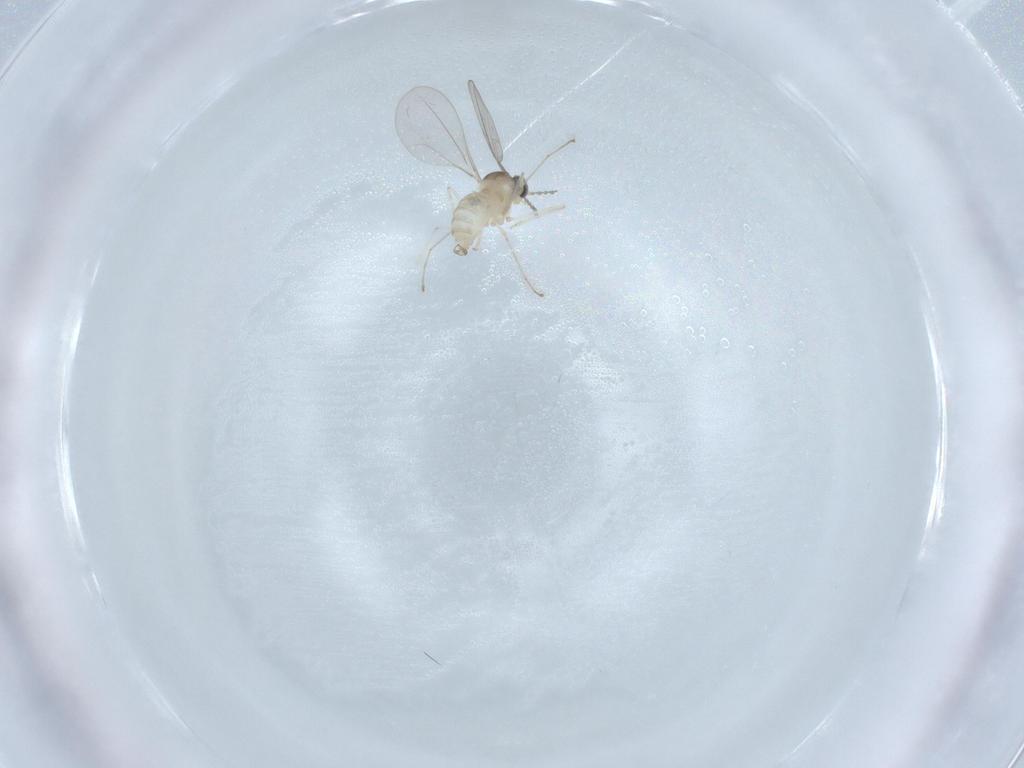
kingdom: Animalia
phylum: Arthropoda
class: Insecta
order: Diptera
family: Cecidomyiidae
